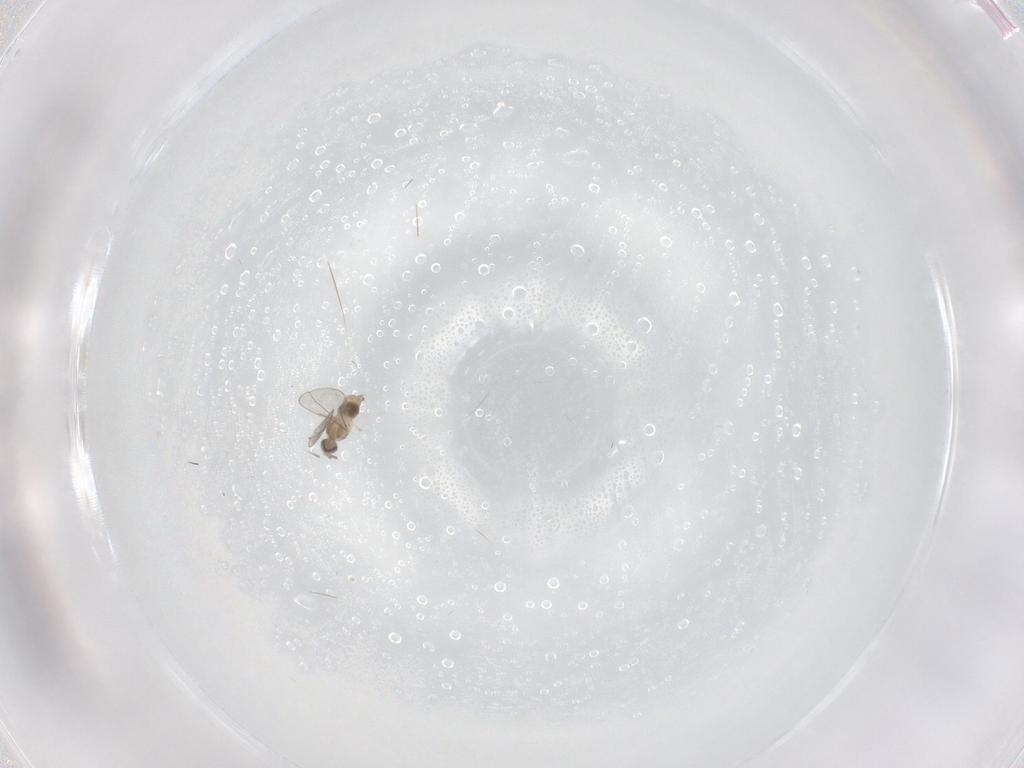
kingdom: Animalia
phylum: Arthropoda
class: Insecta
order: Diptera
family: Cecidomyiidae
